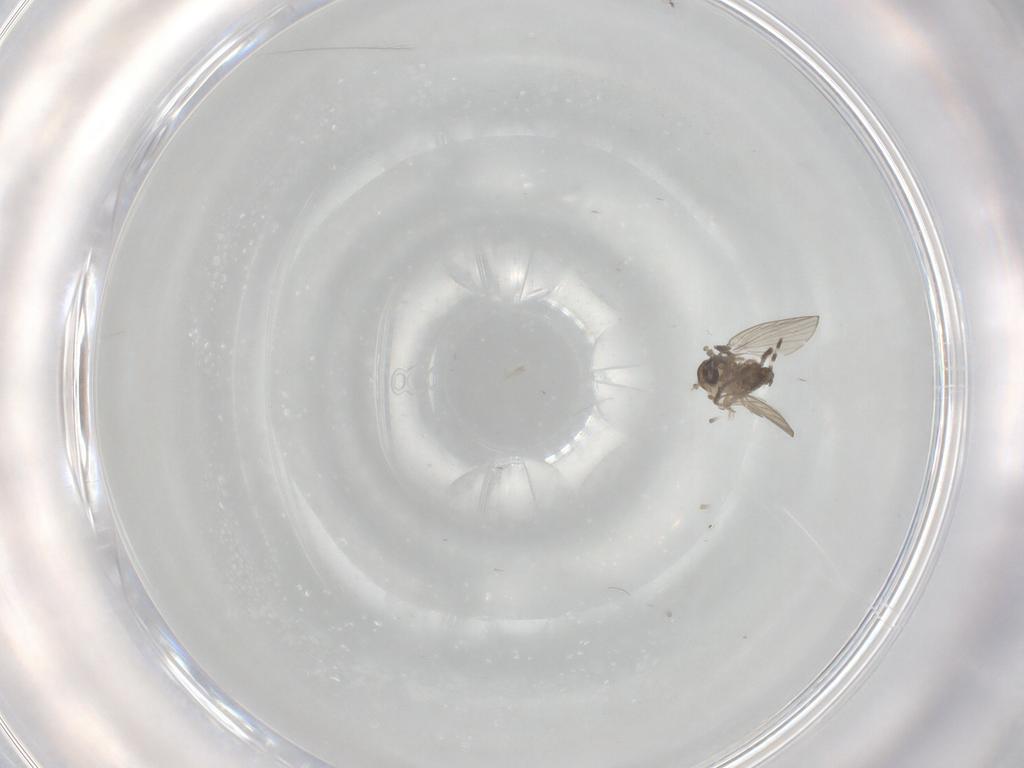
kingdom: Animalia
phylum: Arthropoda
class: Insecta
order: Diptera
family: Psychodidae
